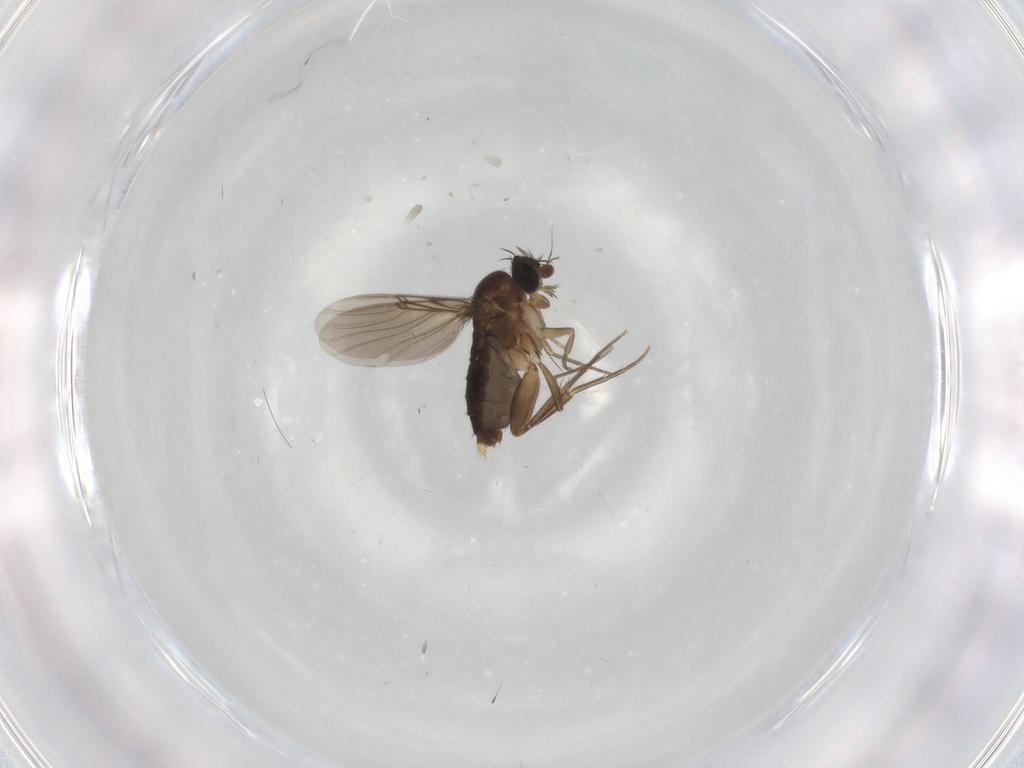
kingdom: Animalia
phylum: Arthropoda
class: Insecta
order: Diptera
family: Phoridae
